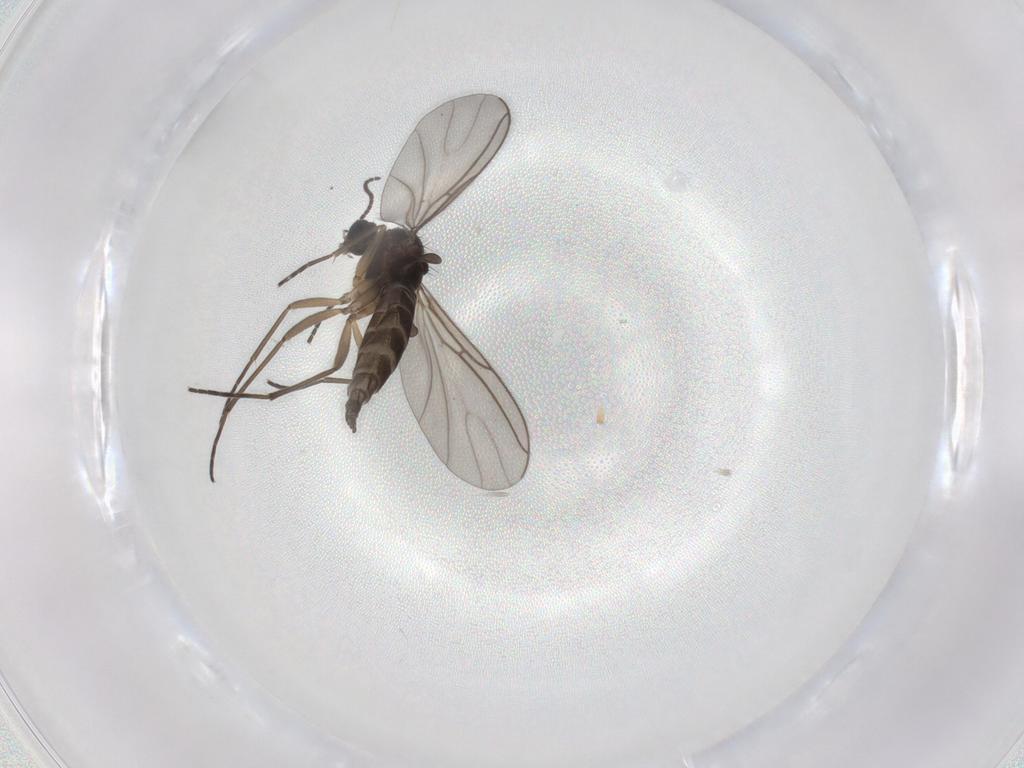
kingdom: Animalia
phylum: Arthropoda
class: Insecta
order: Diptera
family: Sciaridae
